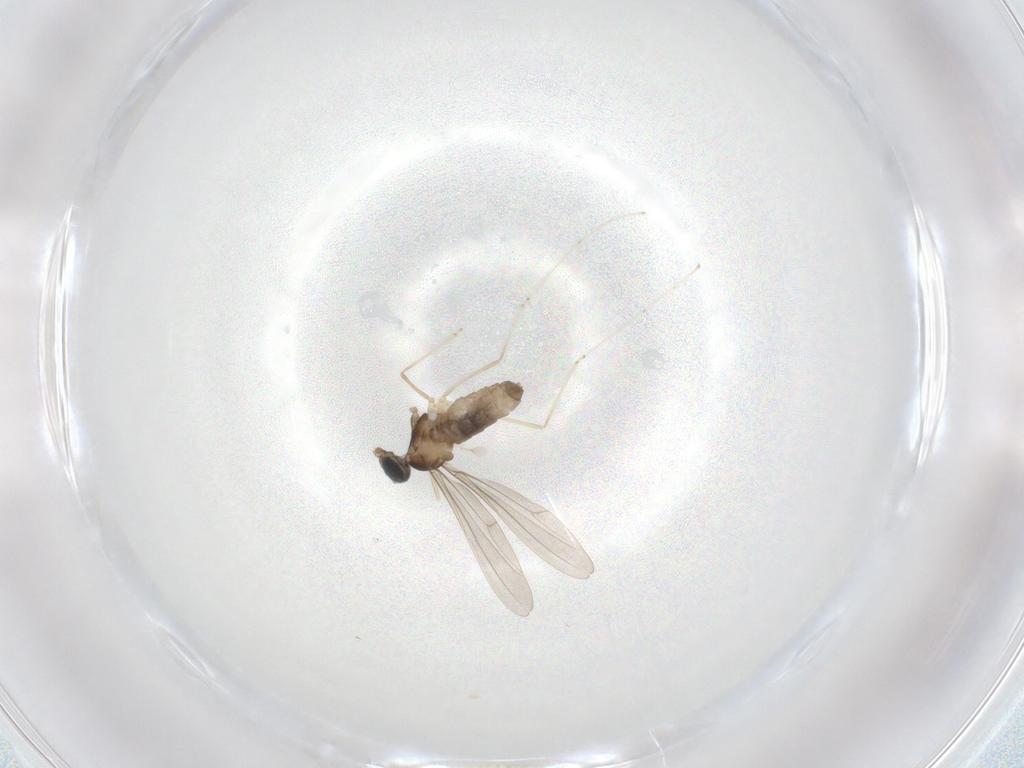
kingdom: Animalia
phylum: Arthropoda
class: Insecta
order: Diptera
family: Cecidomyiidae
